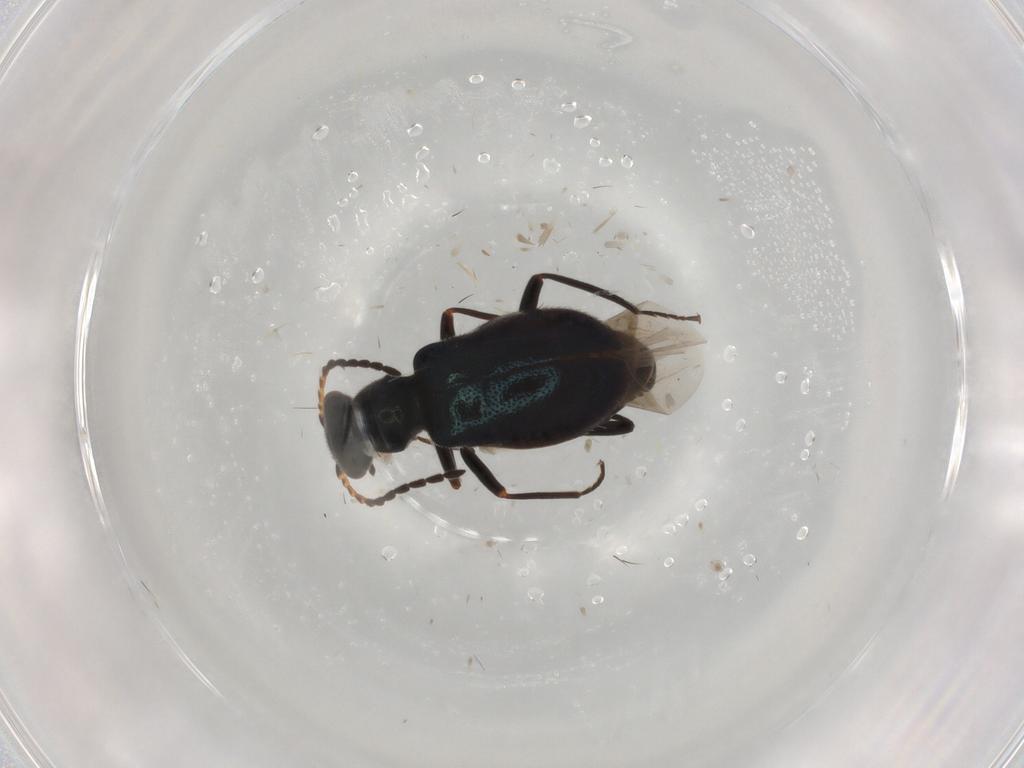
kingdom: Animalia
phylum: Arthropoda
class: Insecta
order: Coleoptera
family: Melyridae
